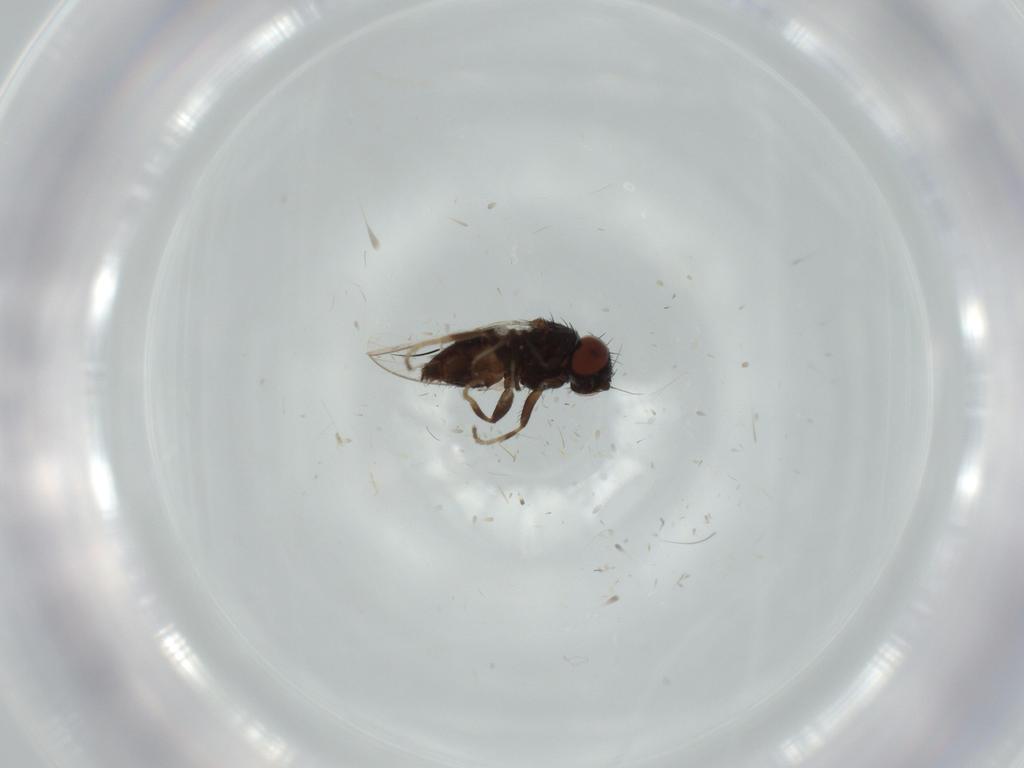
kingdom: Animalia
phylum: Arthropoda
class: Insecta
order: Diptera
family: Milichiidae
